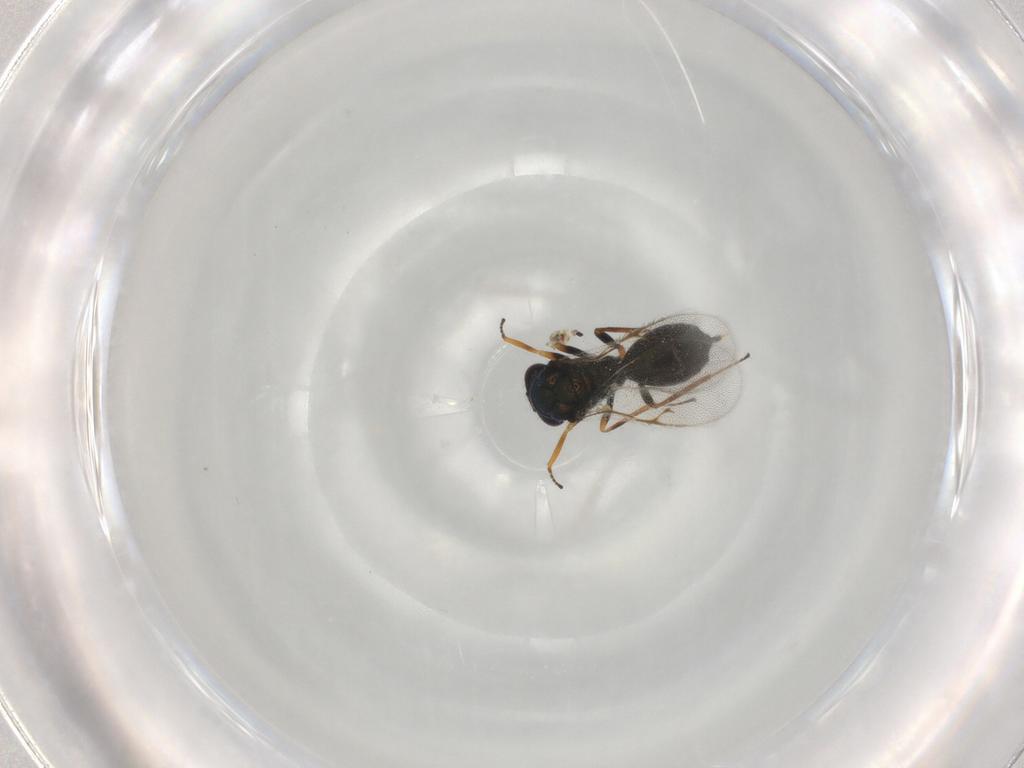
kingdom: Animalia
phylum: Arthropoda
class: Insecta
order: Hymenoptera
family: Chalcidoidea_incertae_sedis
